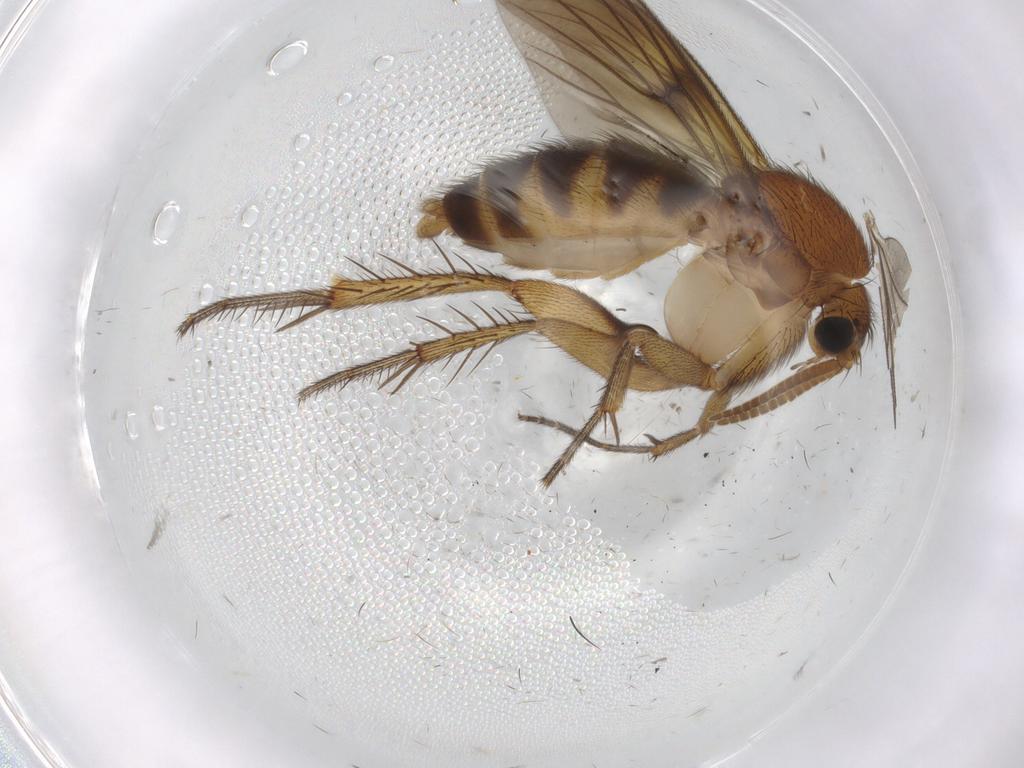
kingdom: Animalia
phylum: Arthropoda
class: Insecta
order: Diptera
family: Psychodidae
